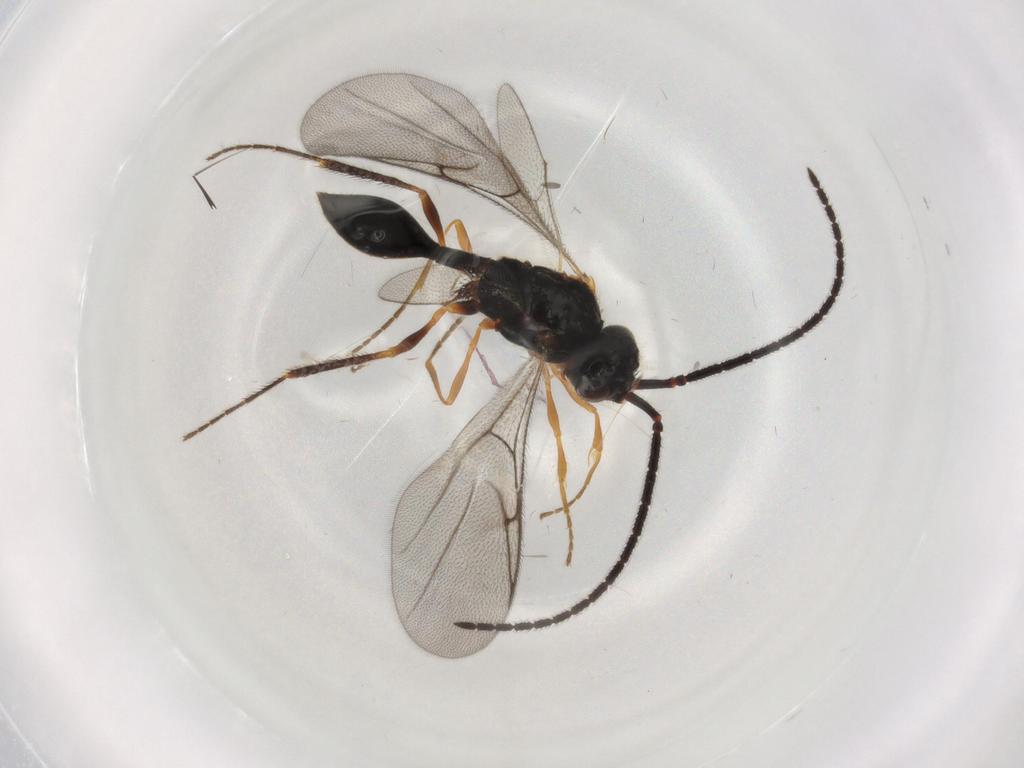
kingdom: Animalia
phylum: Arthropoda
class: Insecta
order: Hymenoptera
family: Diapriidae
